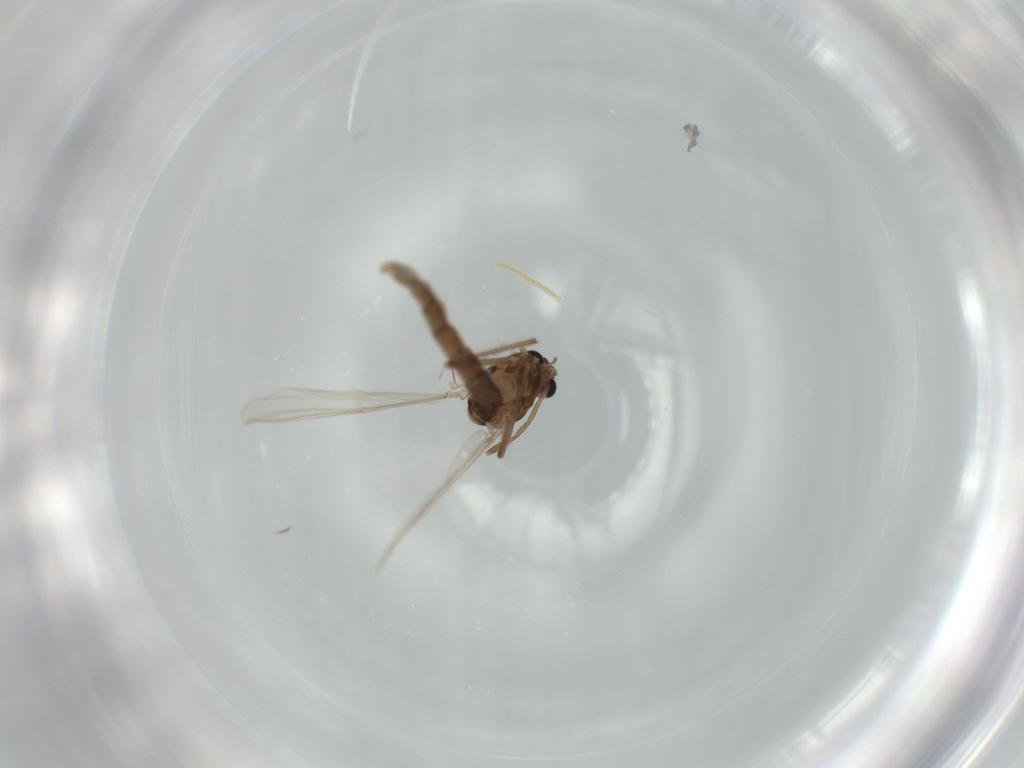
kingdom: Animalia
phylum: Arthropoda
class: Insecta
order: Diptera
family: Chironomidae
